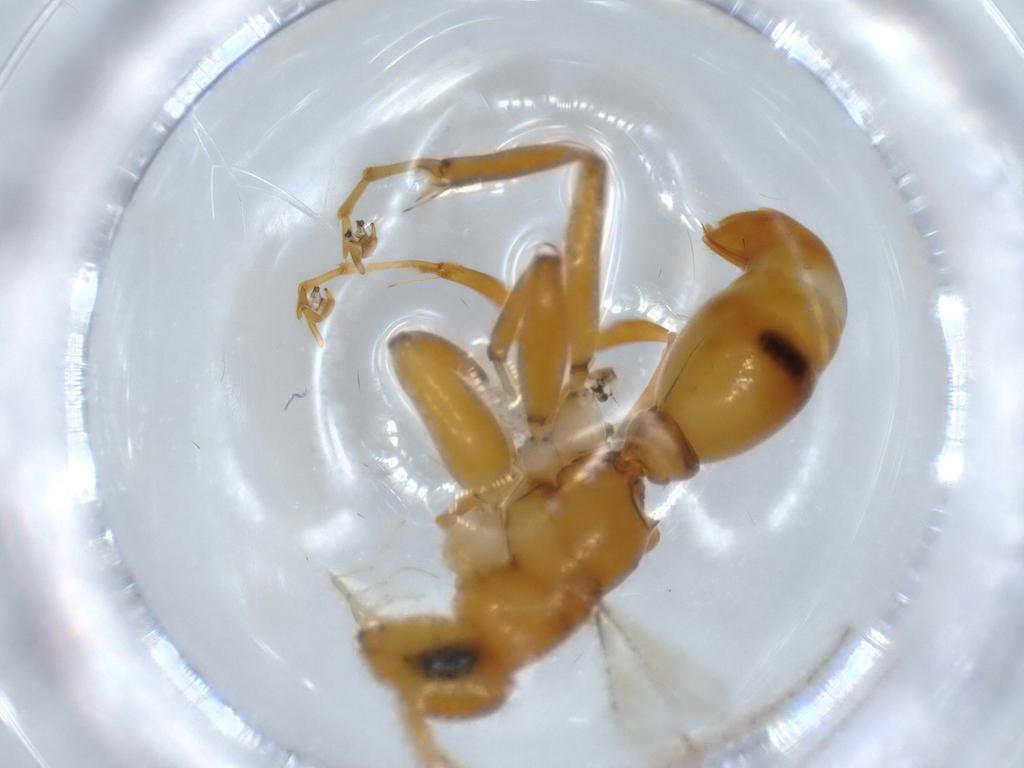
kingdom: Animalia
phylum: Arthropoda
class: Insecta
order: Hymenoptera
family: Rhopalosomatidae
